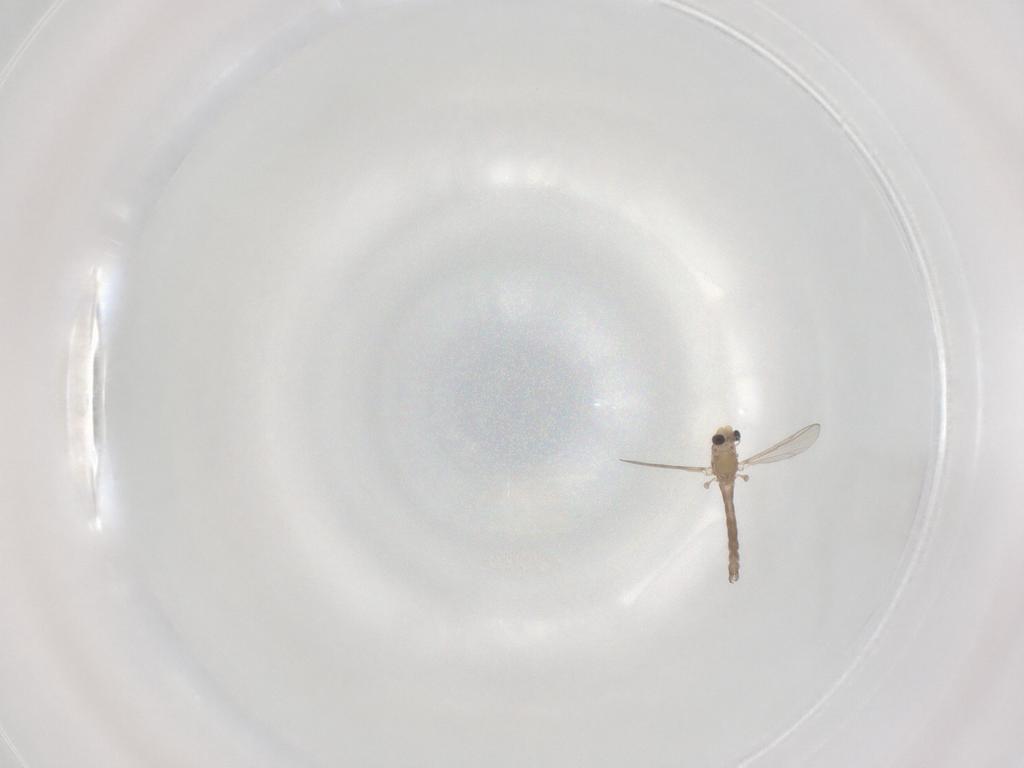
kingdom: Animalia
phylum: Arthropoda
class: Insecta
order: Diptera
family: Chironomidae
